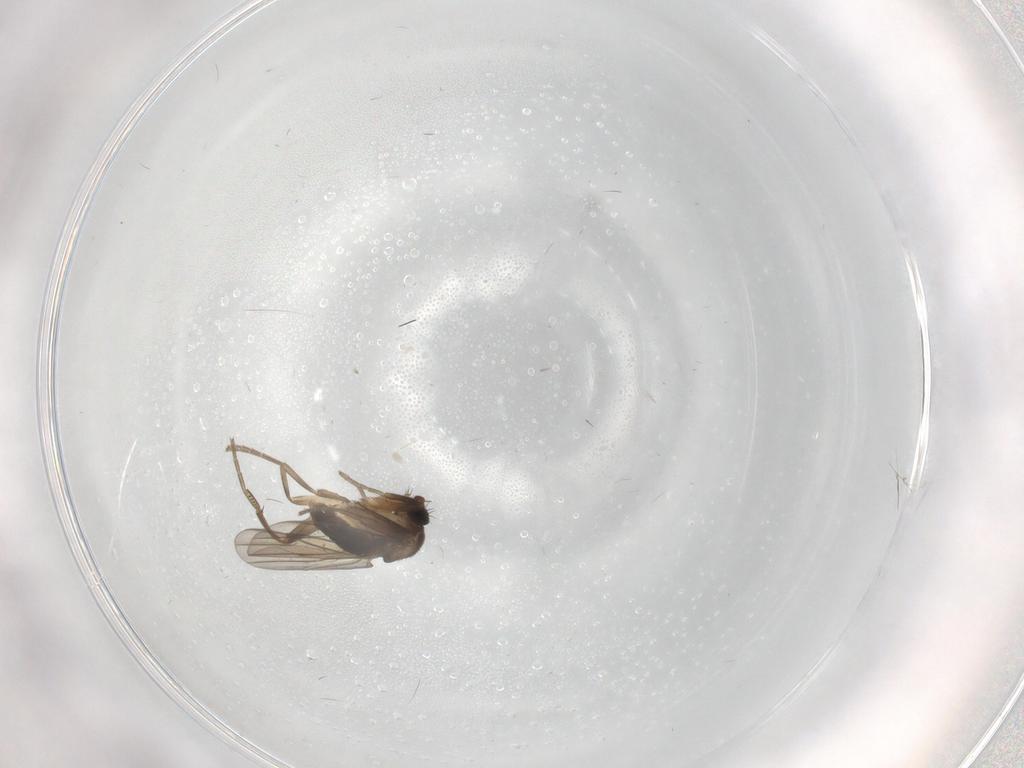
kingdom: Animalia
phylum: Arthropoda
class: Insecta
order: Diptera
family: Phoridae
